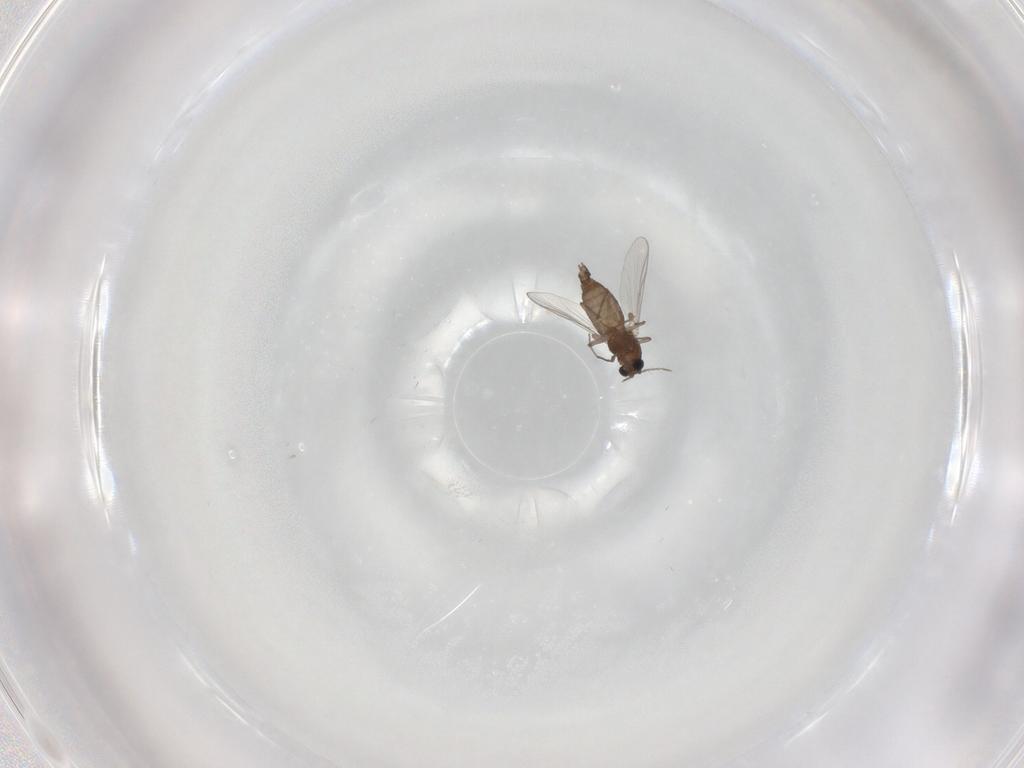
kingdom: Animalia
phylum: Arthropoda
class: Insecta
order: Diptera
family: Chironomidae
